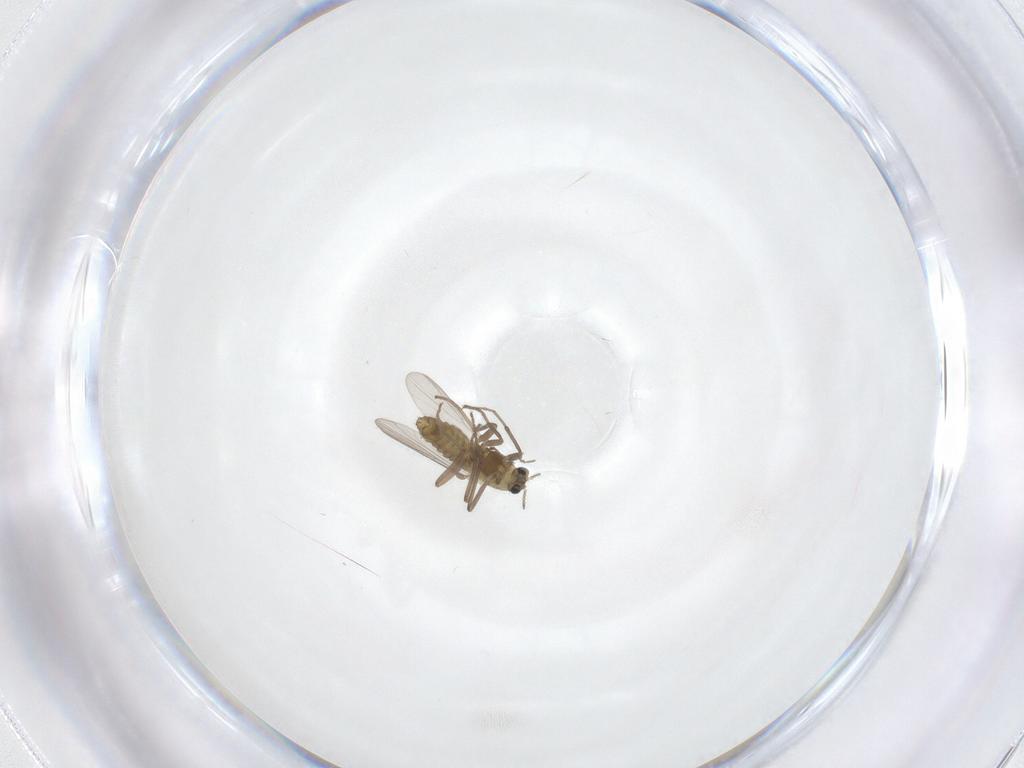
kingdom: Animalia
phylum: Arthropoda
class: Insecta
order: Diptera
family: Chironomidae
